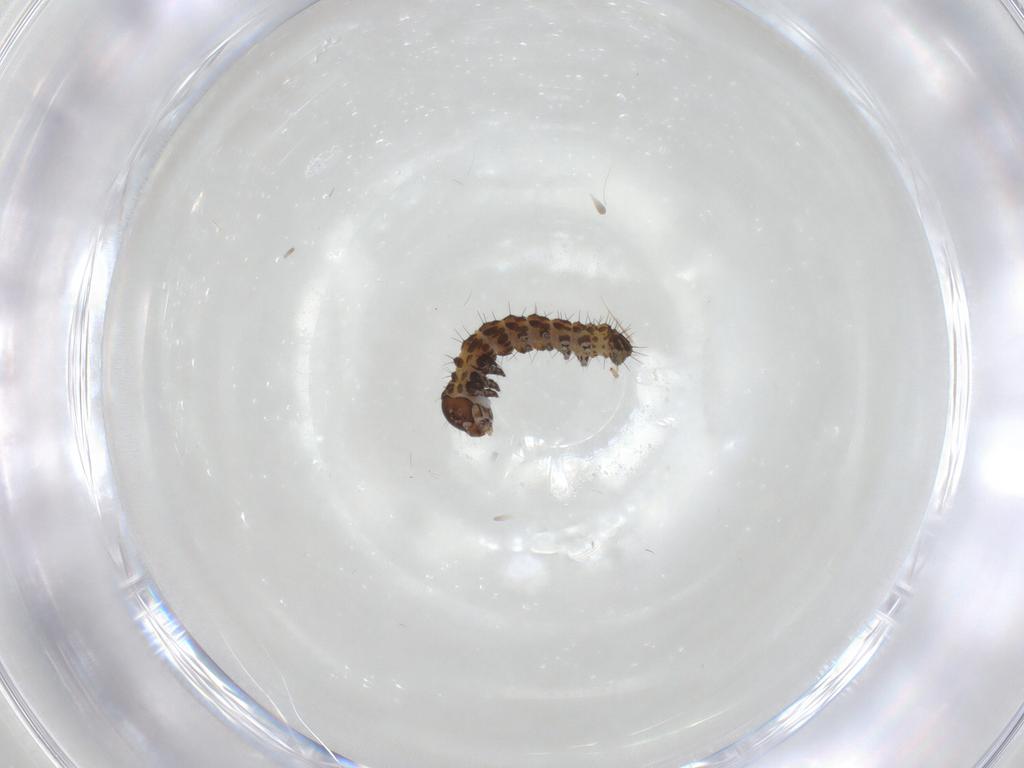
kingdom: Animalia
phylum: Arthropoda
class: Insecta
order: Lepidoptera
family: Noctuidae
